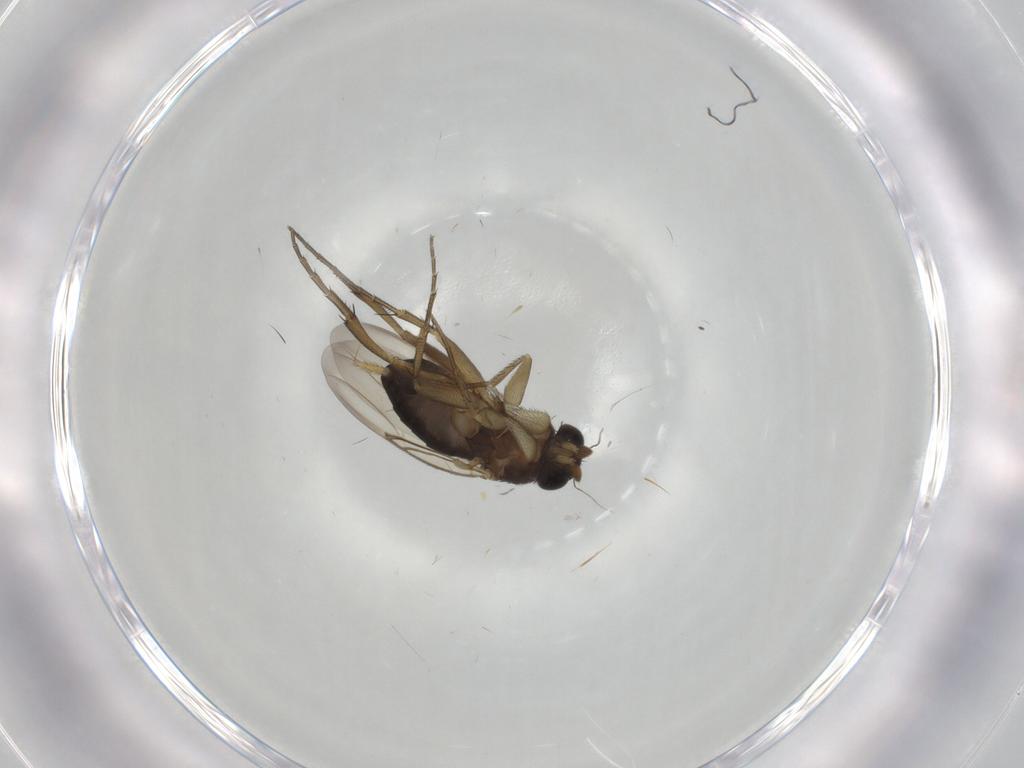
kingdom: Animalia
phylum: Arthropoda
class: Insecta
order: Diptera
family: Phoridae
